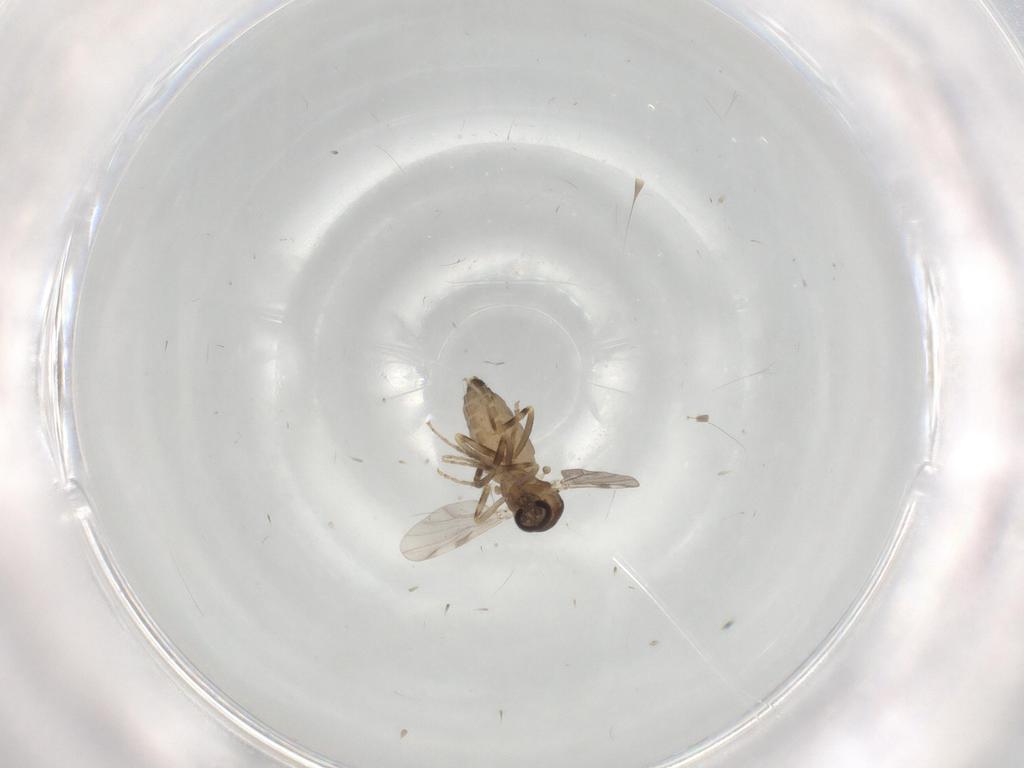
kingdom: Animalia
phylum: Arthropoda
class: Insecta
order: Diptera
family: Ceratopogonidae
